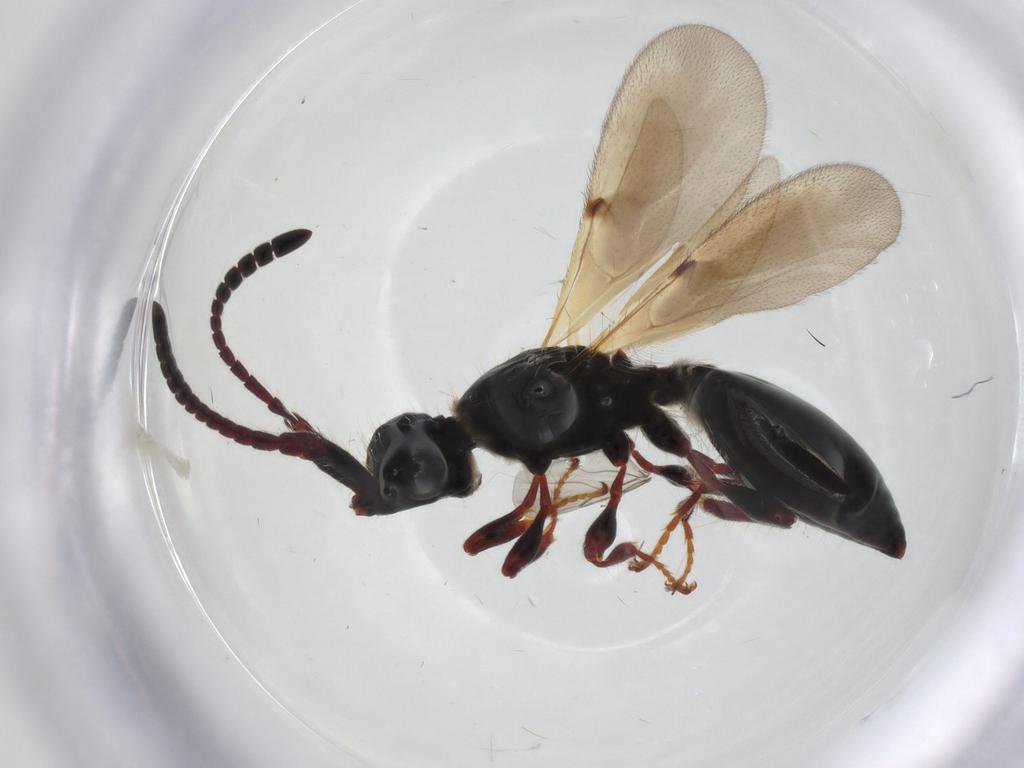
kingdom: Animalia
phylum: Arthropoda
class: Insecta
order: Hymenoptera
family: Diapriidae
